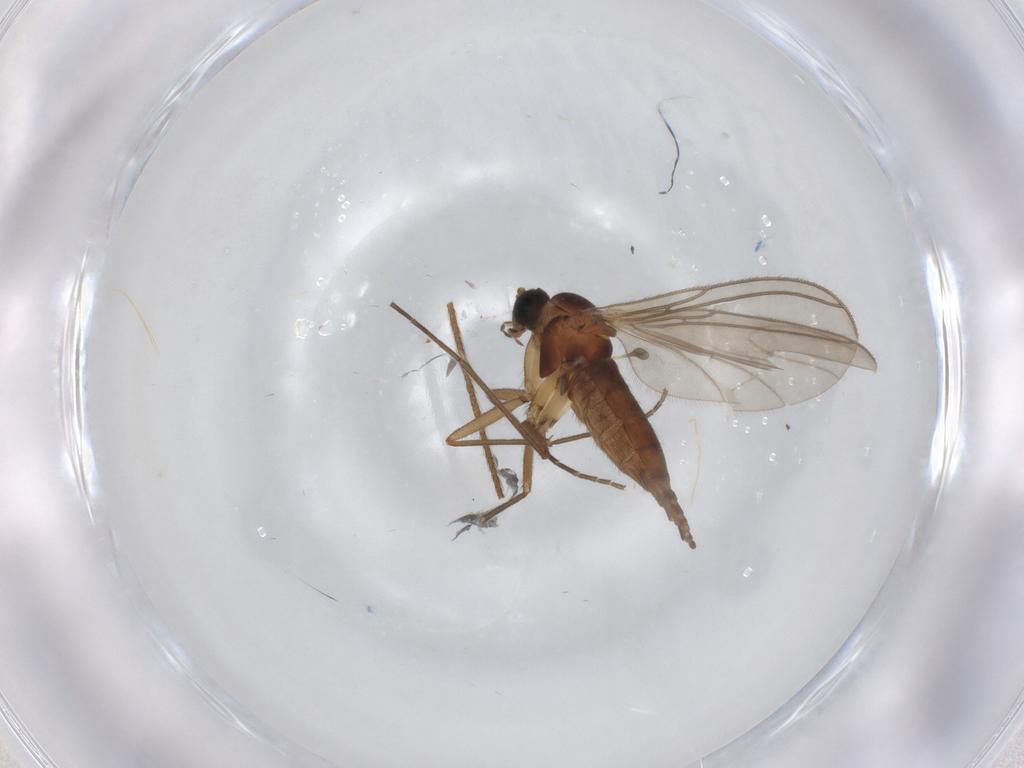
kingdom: Animalia
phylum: Arthropoda
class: Insecta
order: Diptera
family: Sciaridae
